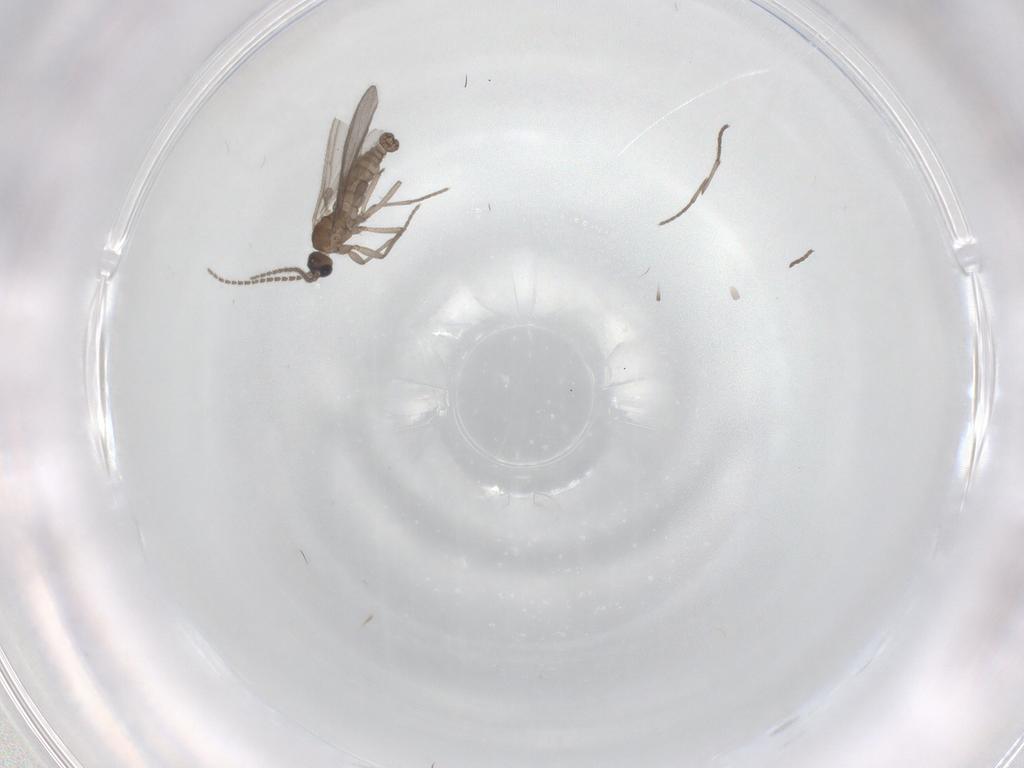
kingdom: Animalia
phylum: Arthropoda
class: Insecta
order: Diptera
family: Sciaridae
